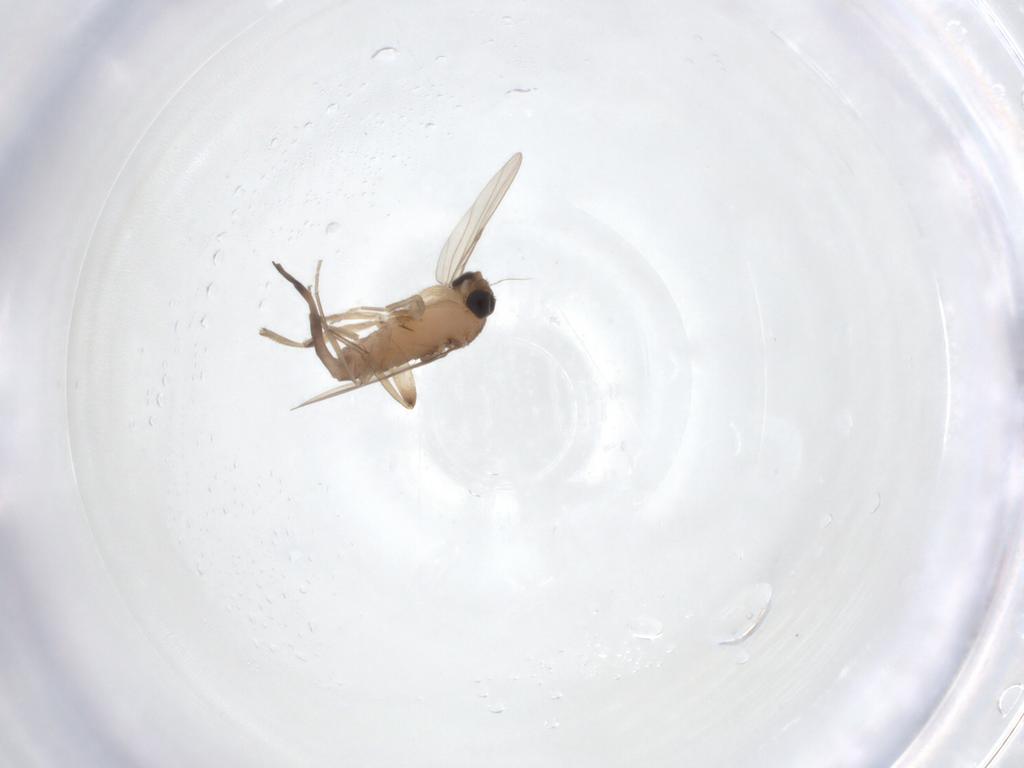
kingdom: Animalia
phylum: Arthropoda
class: Insecta
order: Diptera
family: Phoridae
